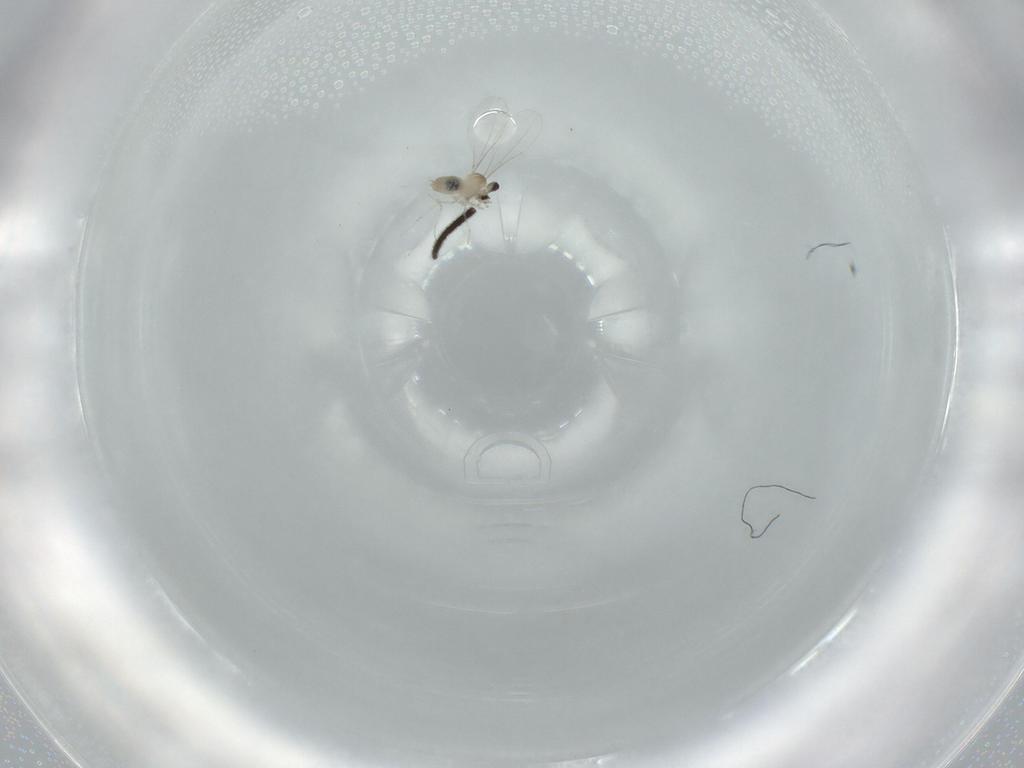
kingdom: Animalia
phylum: Arthropoda
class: Insecta
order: Diptera
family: Cecidomyiidae
